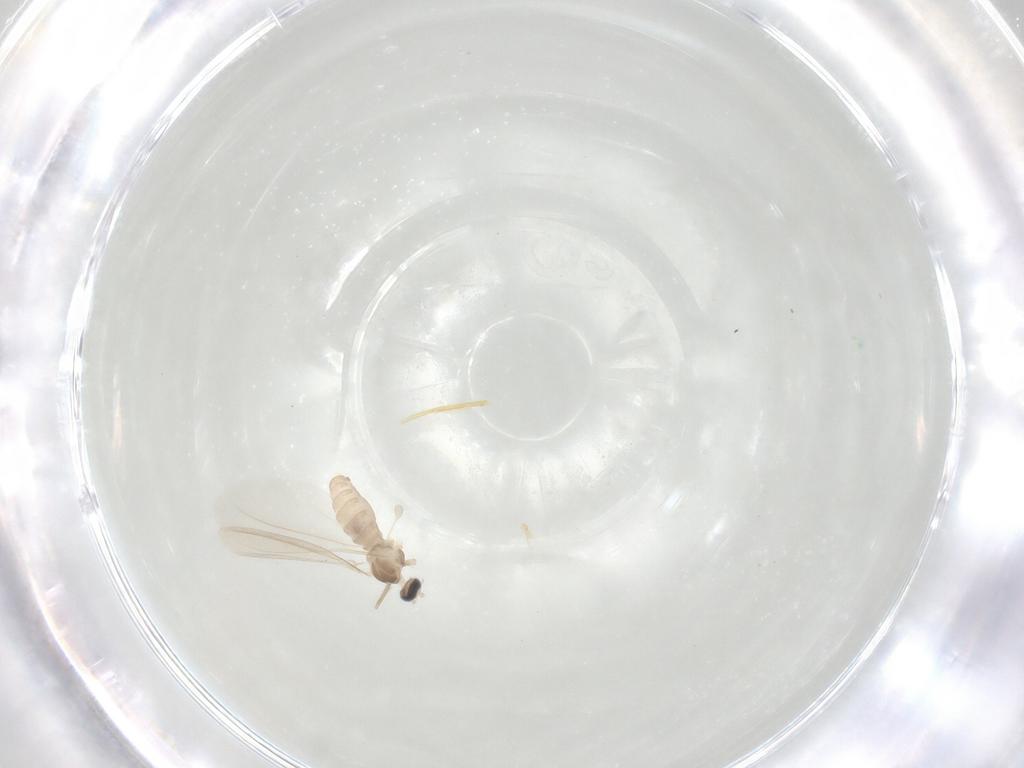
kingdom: Animalia
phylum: Arthropoda
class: Insecta
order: Diptera
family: Cecidomyiidae
